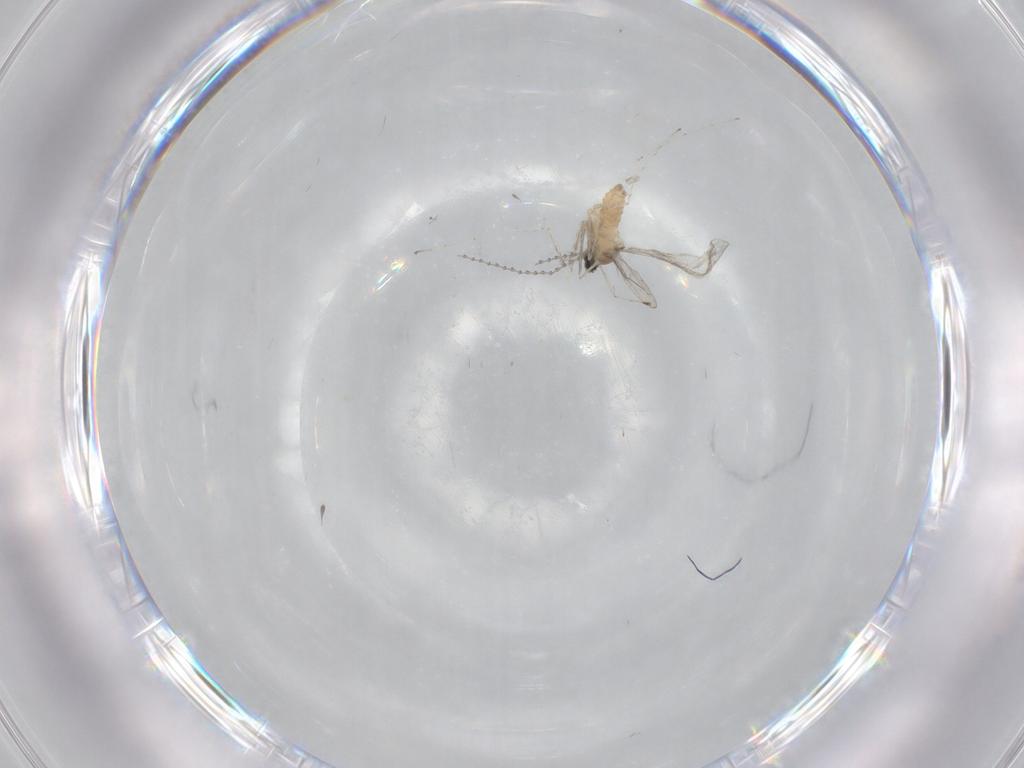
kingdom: Animalia
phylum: Arthropoda
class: Insecta
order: Diptera
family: Cecidomyiidae
